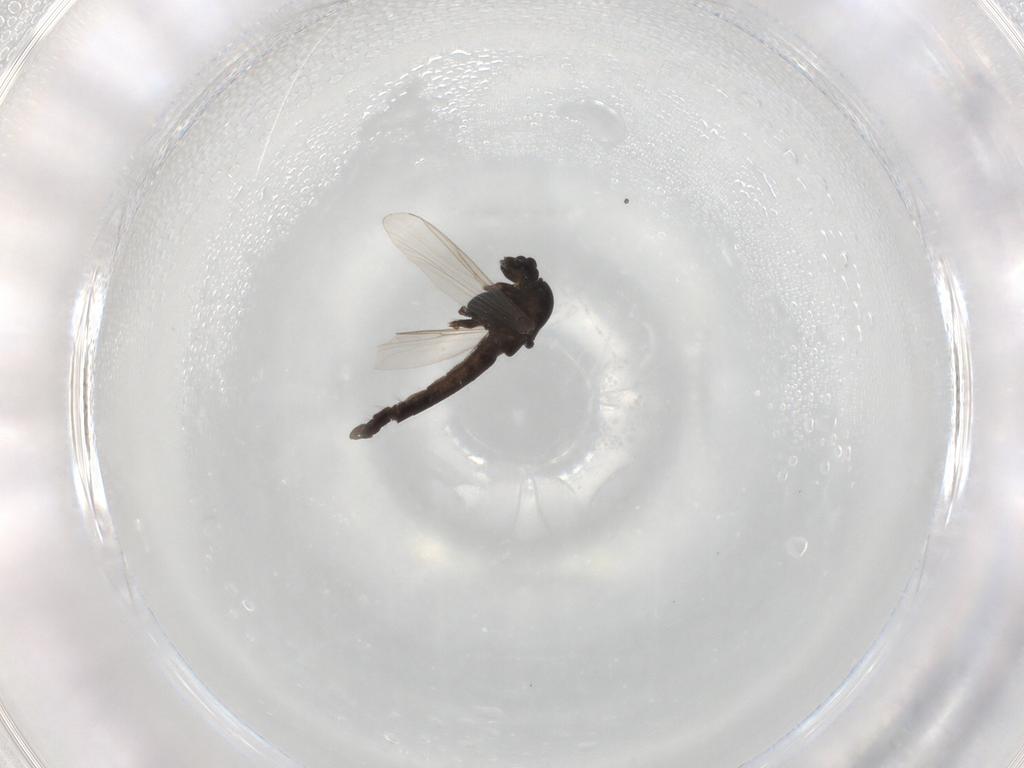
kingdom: Animalia
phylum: Arthropoda
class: Insecta
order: Diptera
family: Chironomidae
